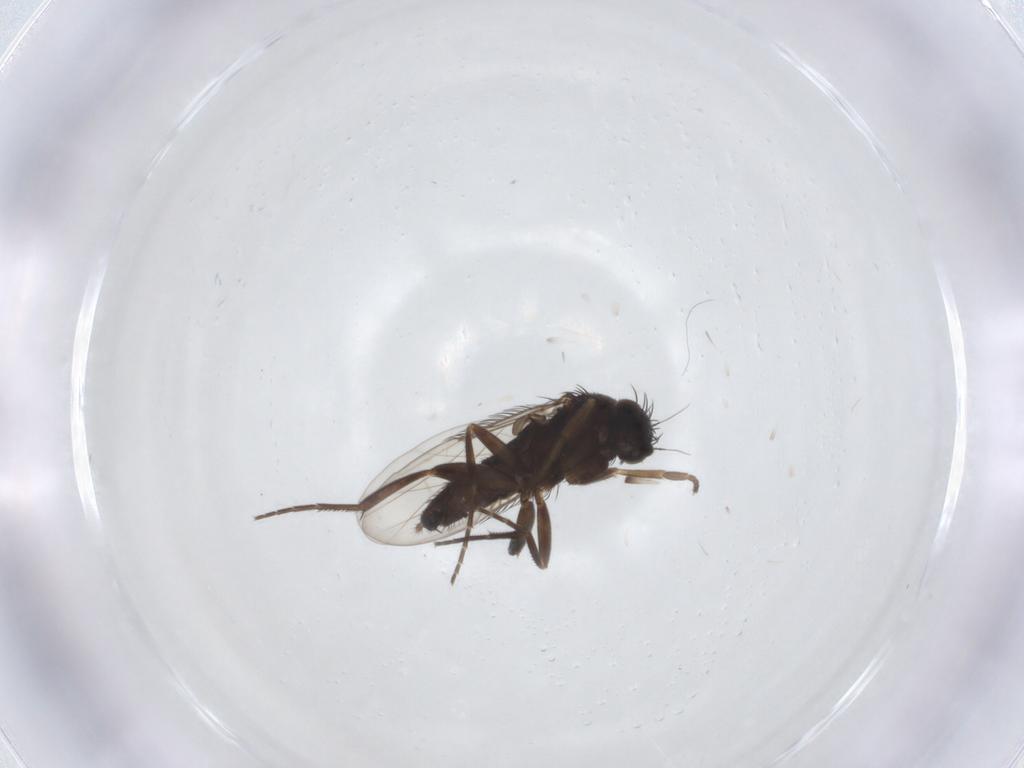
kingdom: Animalia
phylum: Arthropoda
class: Insecta
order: Diptera
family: Phoridae
